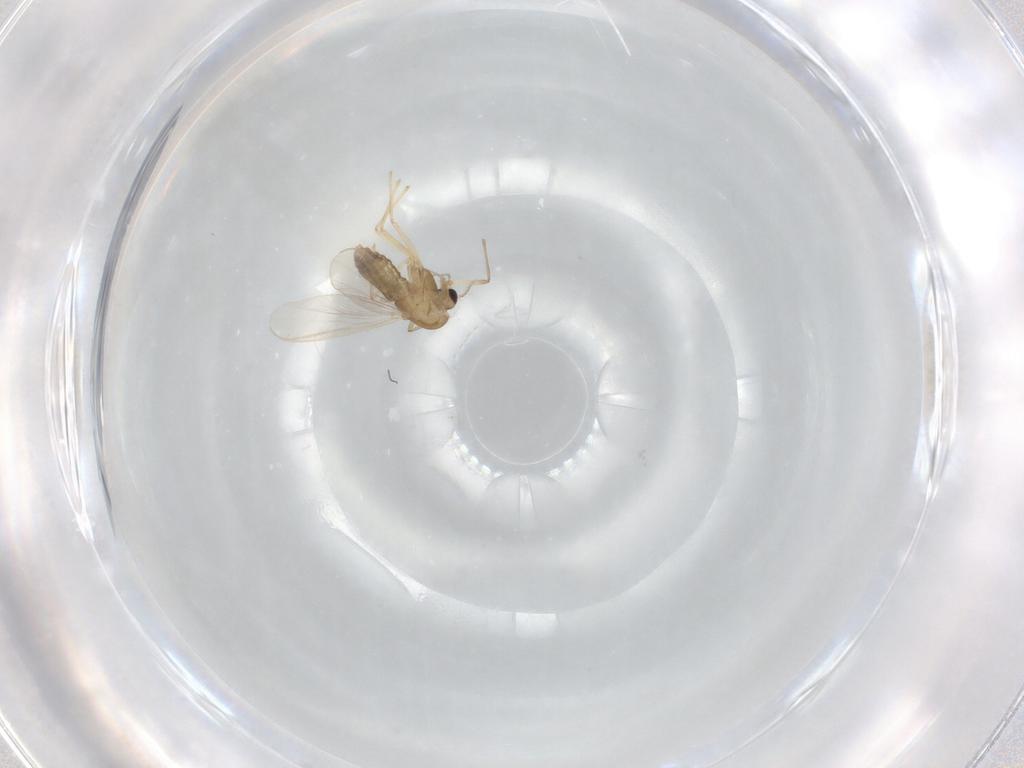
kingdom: Animalia
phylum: Arthropoda
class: Insecta
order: Diptera
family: Chironomidae
